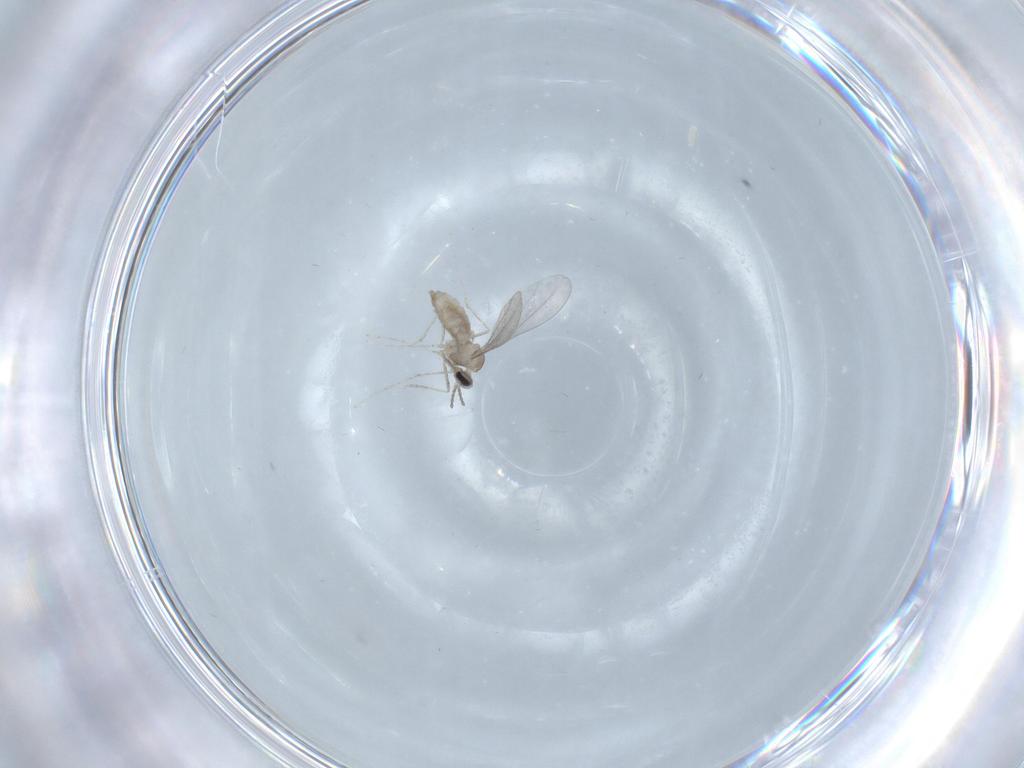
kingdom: Animalia
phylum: Arthropoda
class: Insecta
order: Diptera
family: Cecidomyiidae
